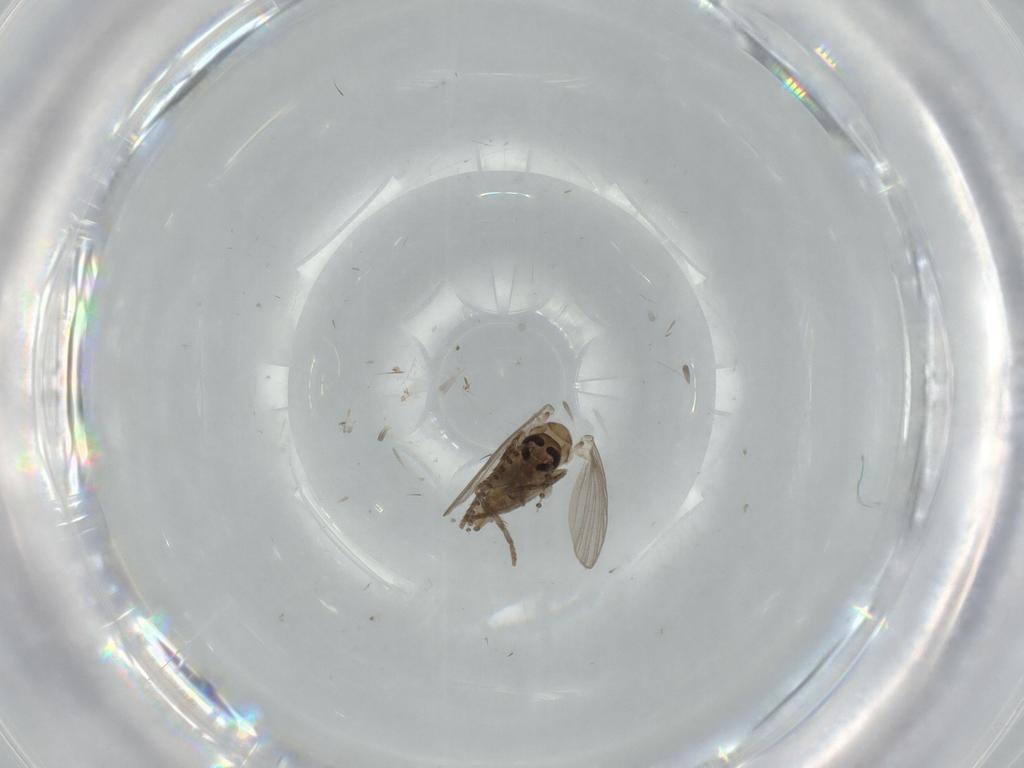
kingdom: Animalia
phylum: Arthropoda
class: Insecta
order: Diptera
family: Psychodidae
